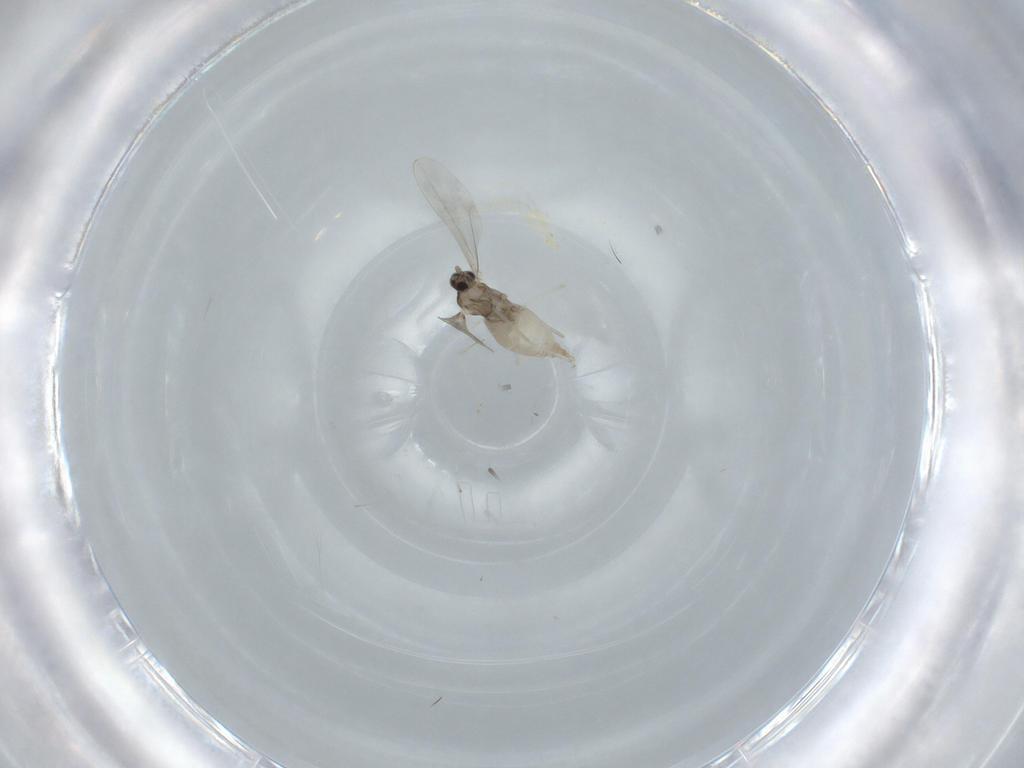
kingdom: Animalia
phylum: Arthropoda
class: Insecta
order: Diptera
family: Cecidomyiidae
